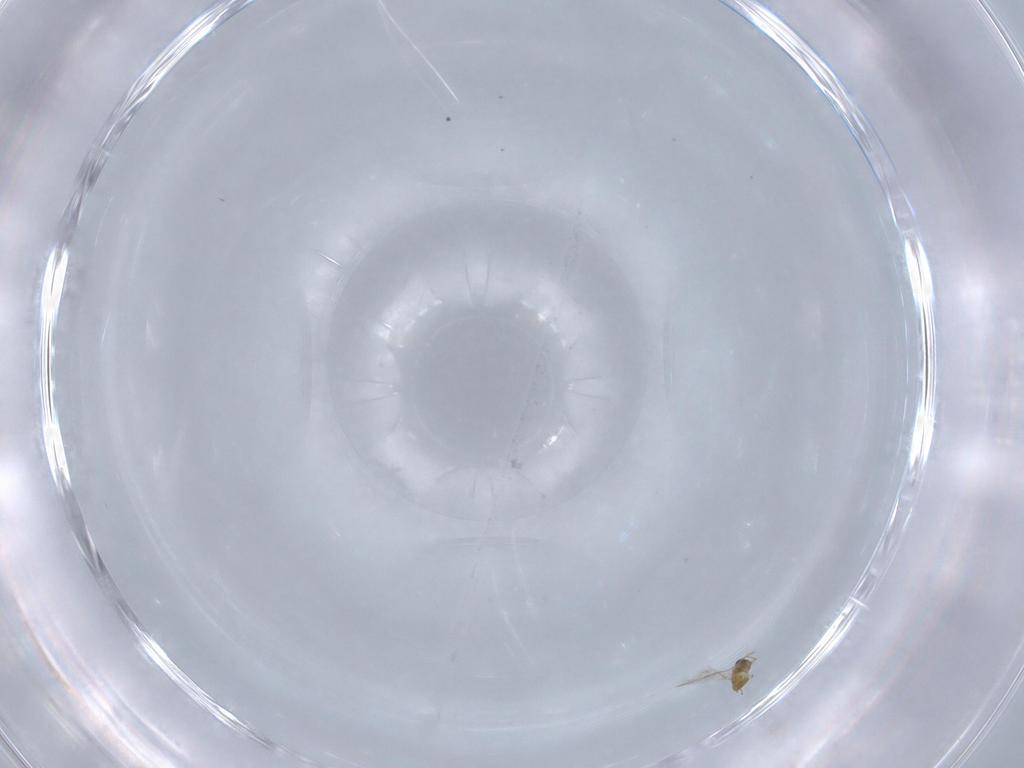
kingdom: Animalia
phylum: Arthropoda
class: Insecta
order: Hymenoptera
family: Trichogrammatidae
